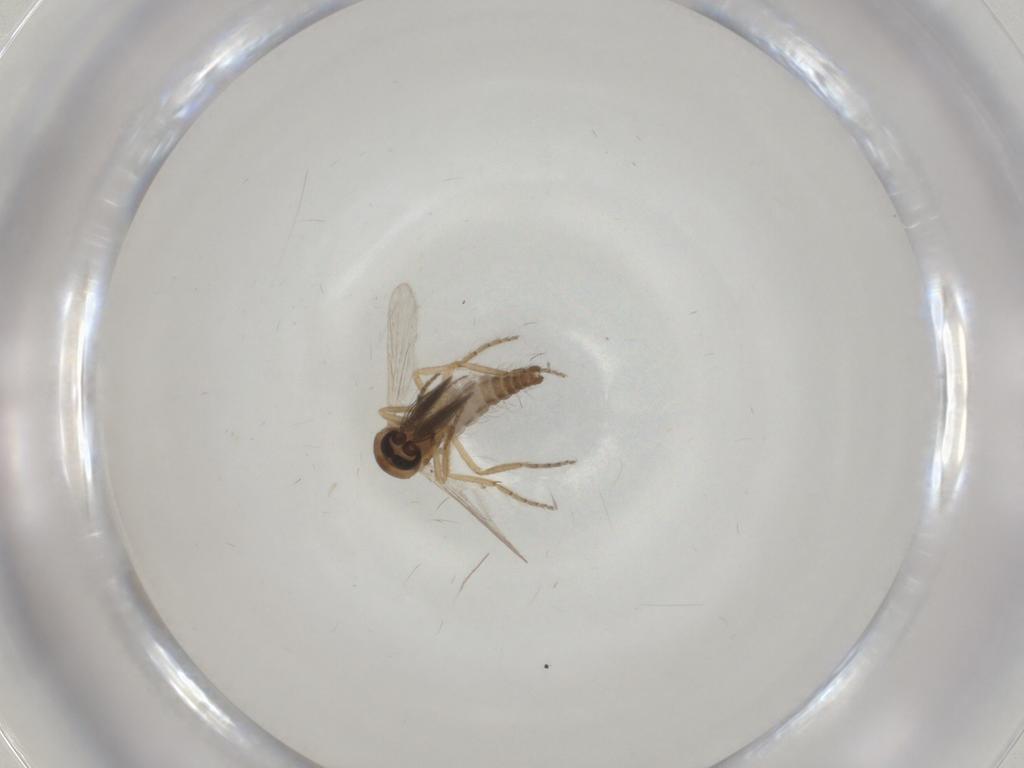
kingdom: Animalia
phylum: Arthropoda
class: Insecta
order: Diptera
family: Ceratopogonidae
